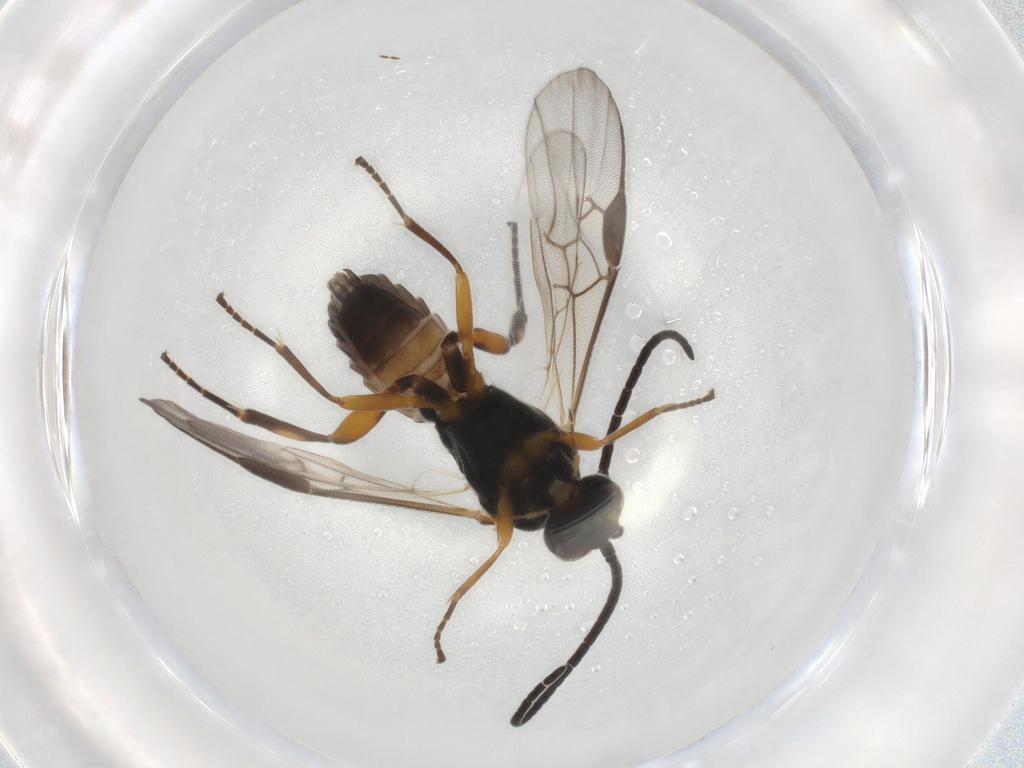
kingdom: Animalia
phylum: Arthropoda
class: Insecta
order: Hymenoptera
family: Braconidae
